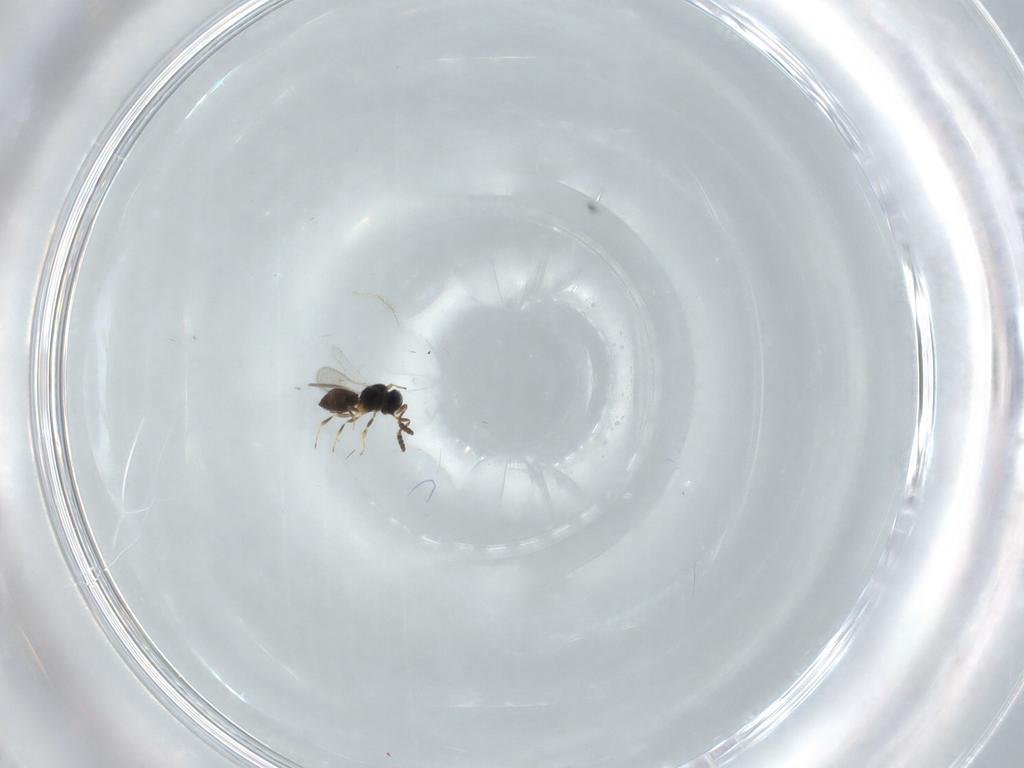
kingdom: Animalia
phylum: Arthropoda
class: Insecta
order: Hymenoptera
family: Scelionidae
